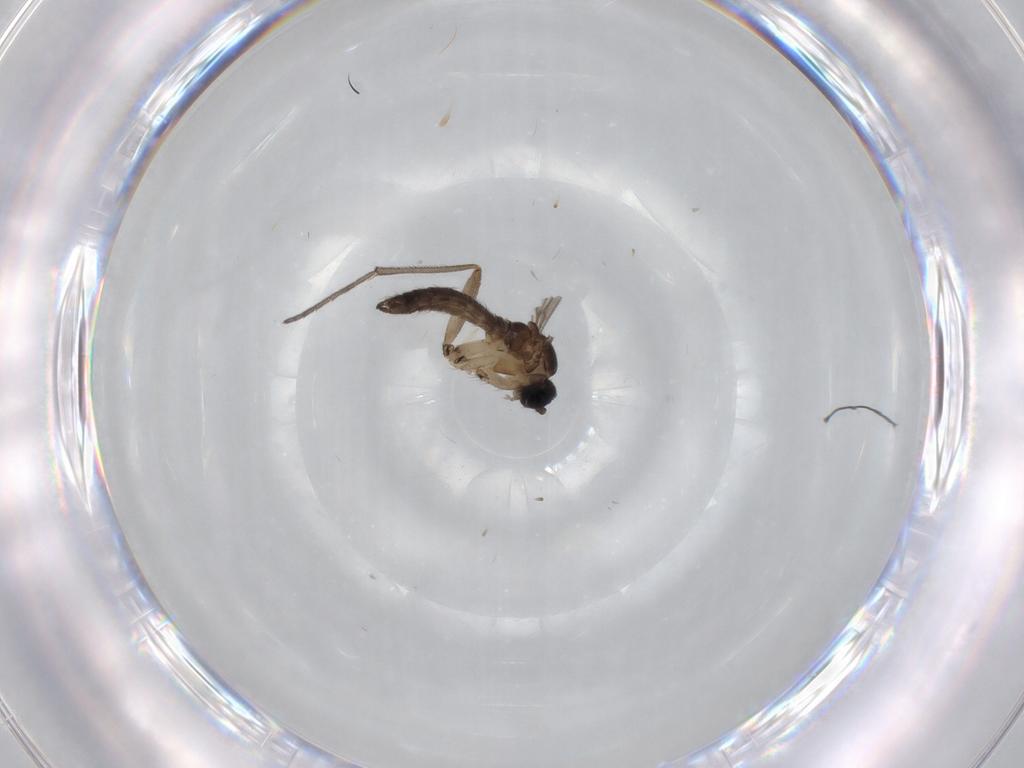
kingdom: Animalia
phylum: Arthropoda
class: Insecta
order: Diptera
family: Sciaridae
